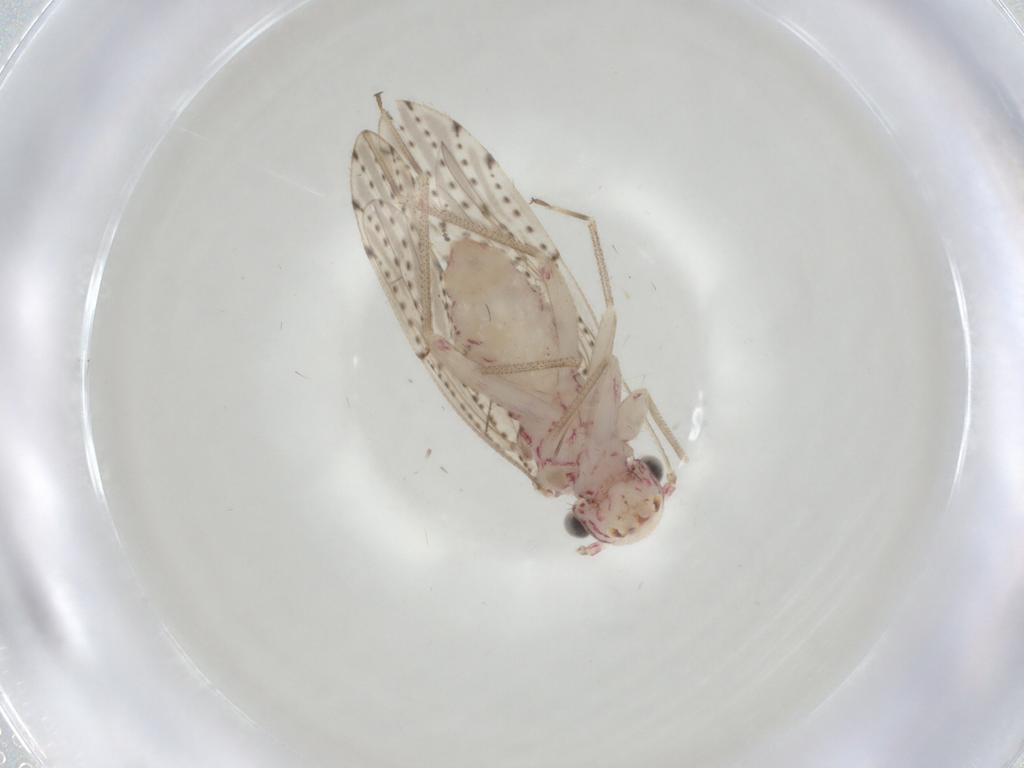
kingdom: Animalia
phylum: Arthropoda
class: Insecta
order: Psocodea
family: Philotarsidae
